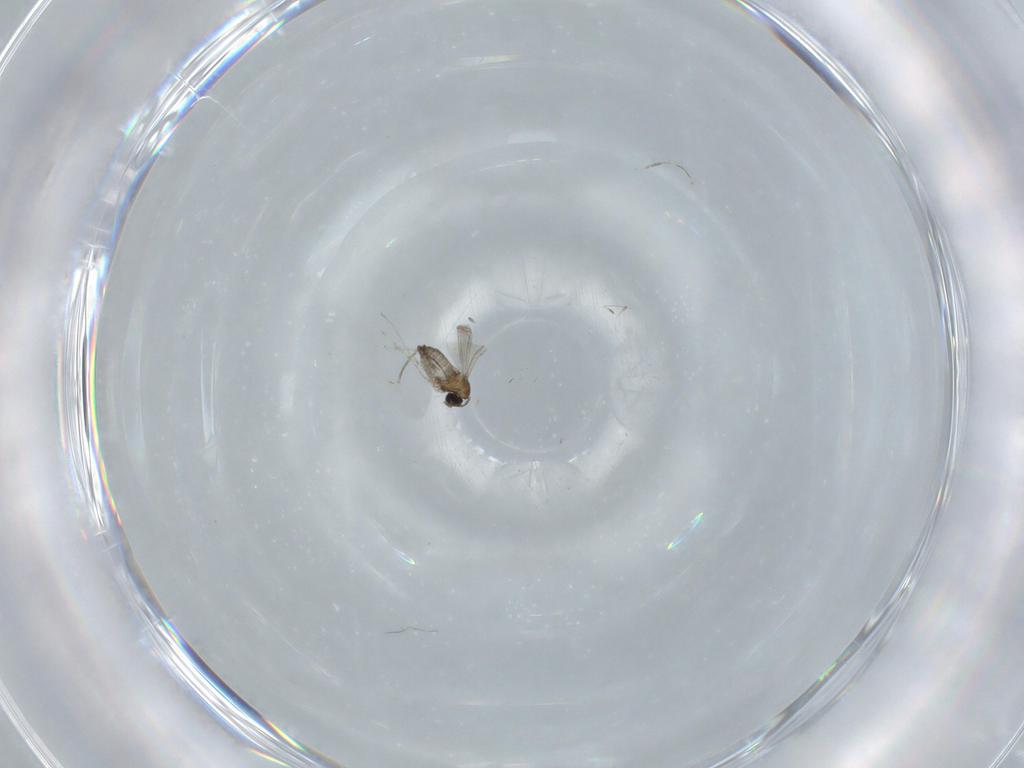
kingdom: Animalia
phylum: Arthropoda
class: Insecta
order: Diptera
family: Cecidomyiidae
